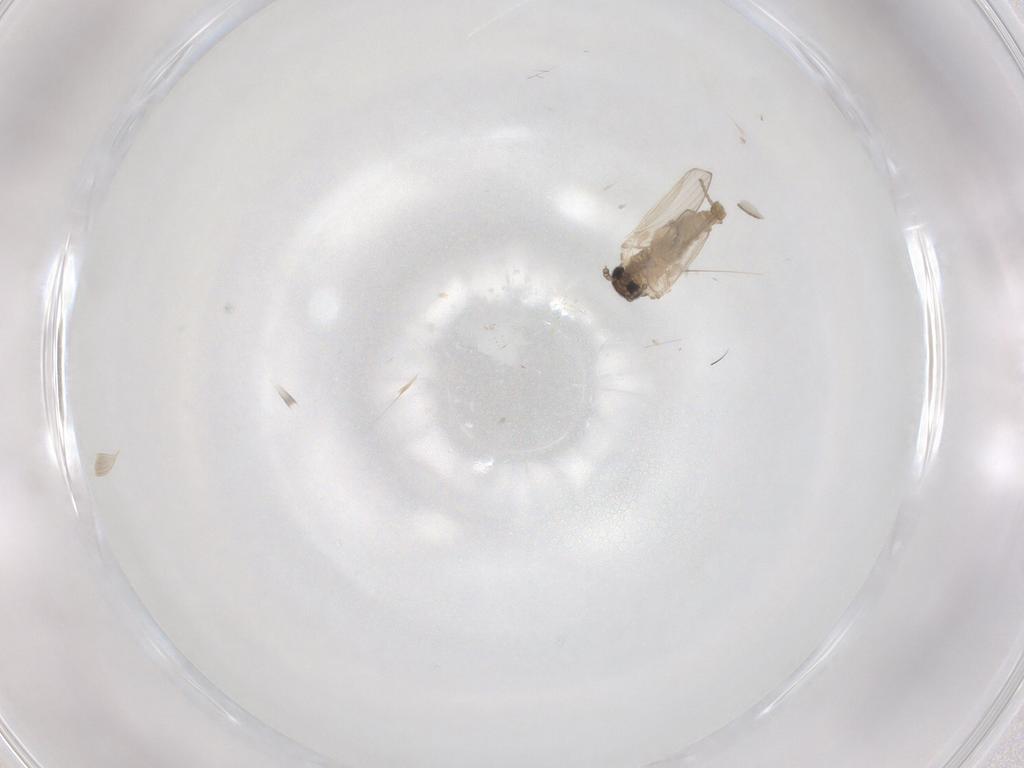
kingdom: Animalia
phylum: Arthropoda
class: Insecta
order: Diptera
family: Psychodidae
